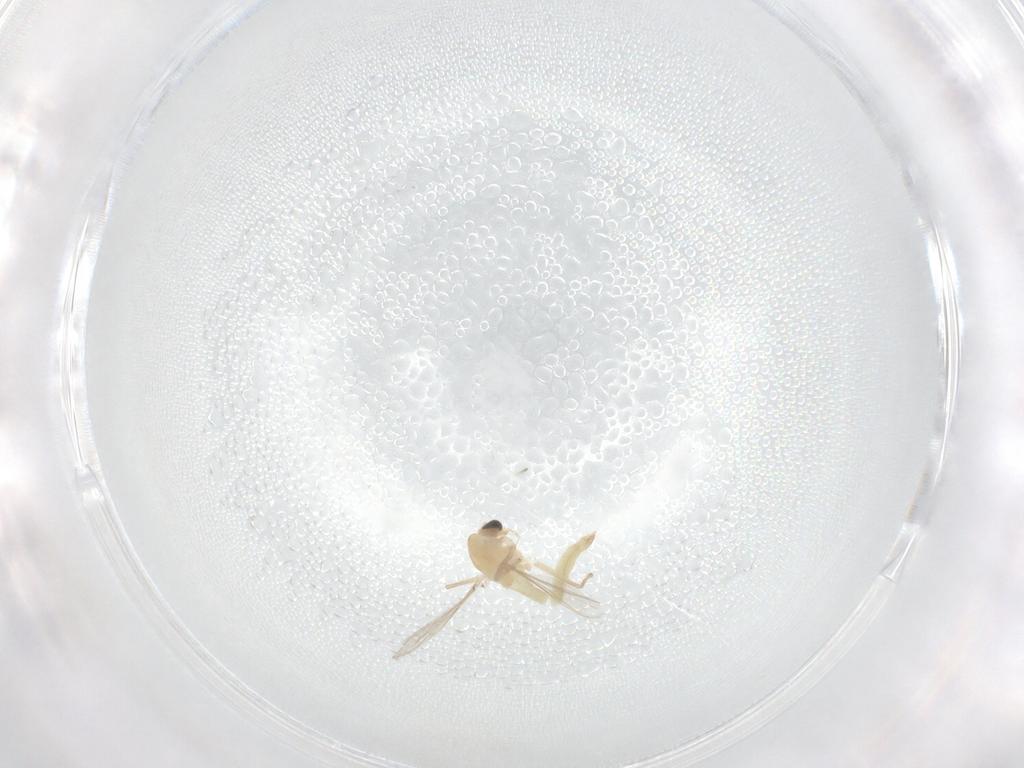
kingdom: Animalia
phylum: Arthropoda
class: Insecta
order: Diptera
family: Chironomidae
